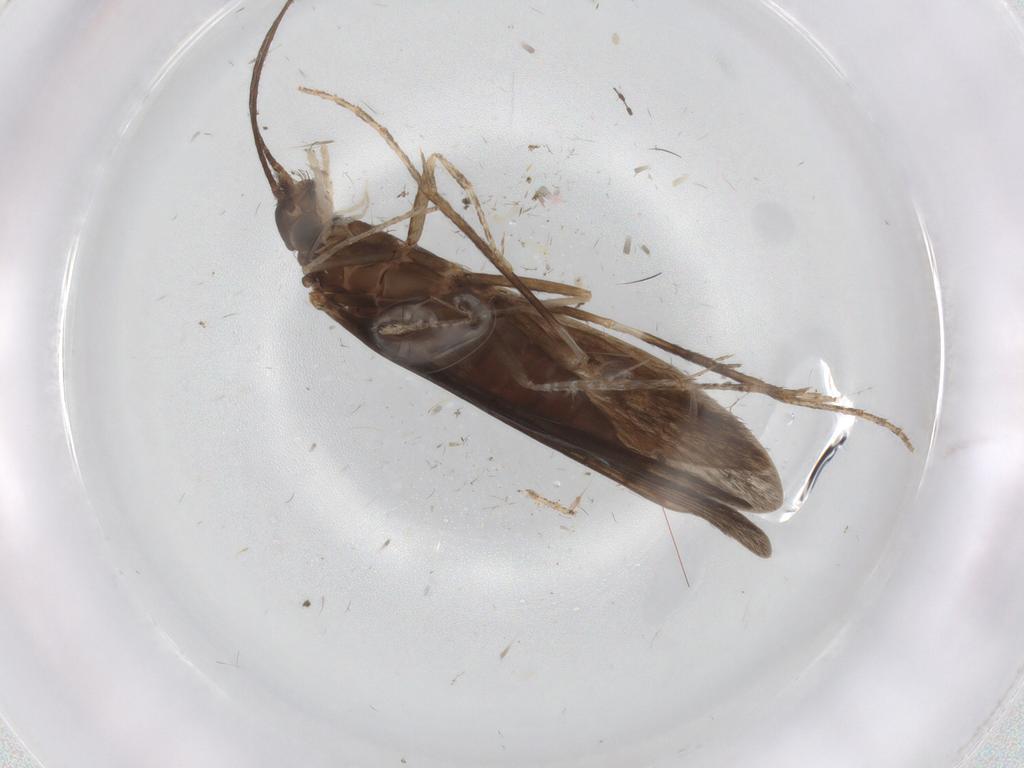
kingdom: Animalia
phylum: Arthropoda
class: Insecta
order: Trichoptera
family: Xiphocentronidae
